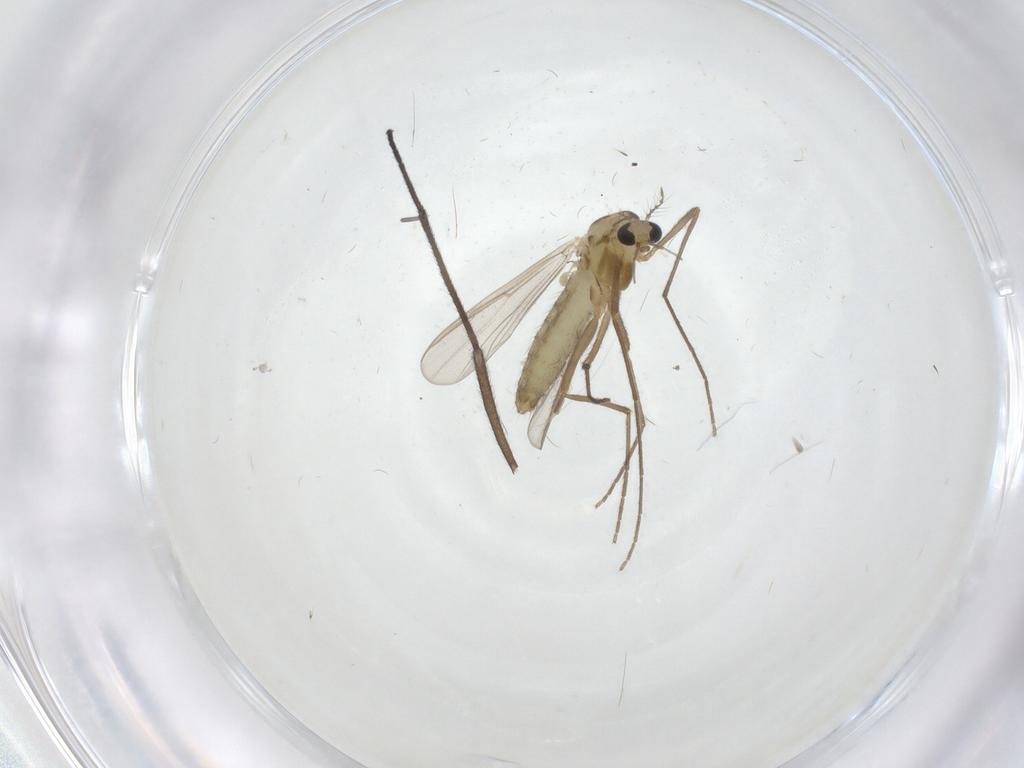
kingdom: Animalia
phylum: Arthropoda
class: Insecta
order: Diptera
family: Chironomidae
